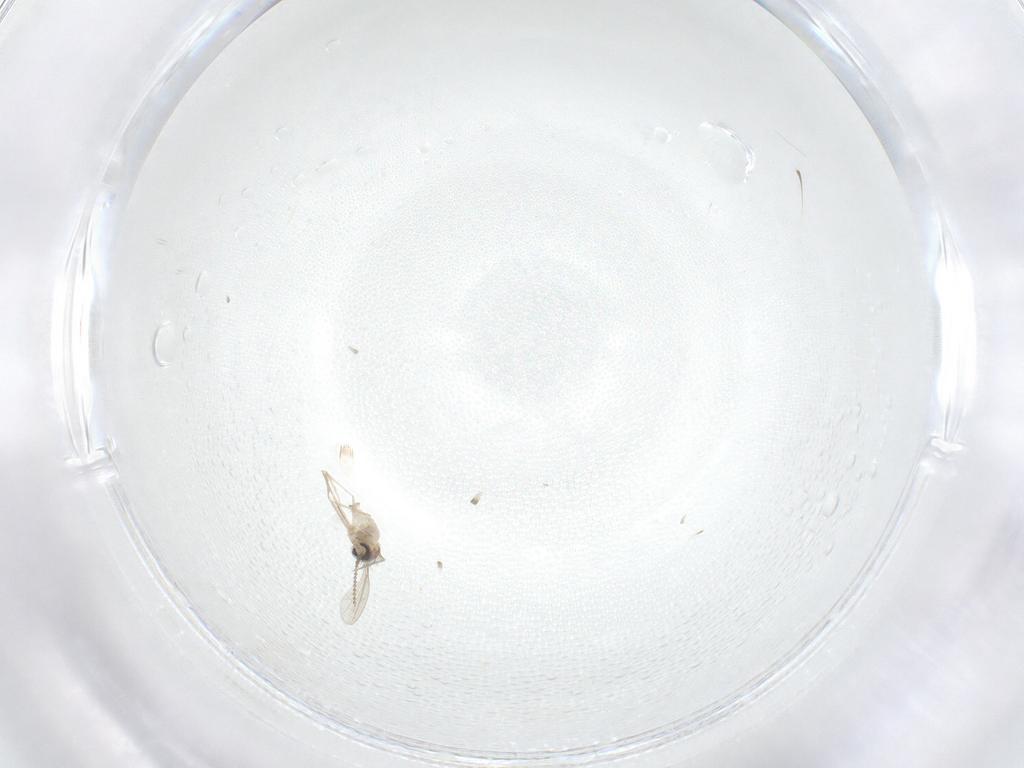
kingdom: Animalia
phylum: Arthropoda
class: Insecta
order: Diptera
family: Cecidomyiidae
